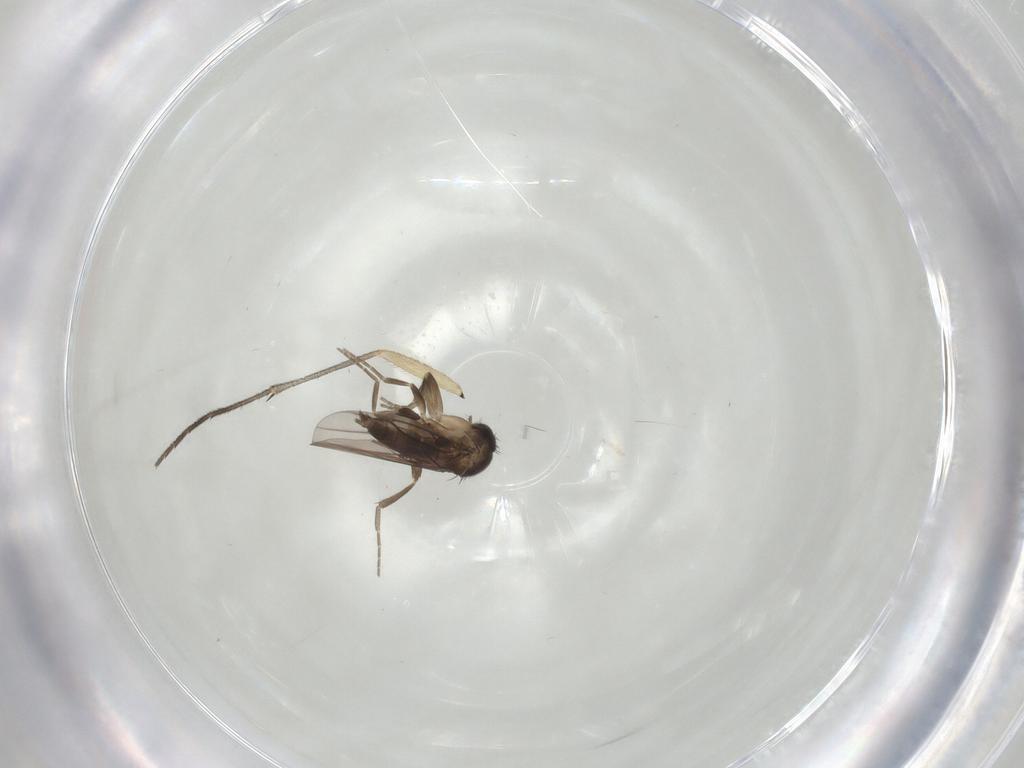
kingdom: Animalia
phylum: Arthropoda
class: Insecta
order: Diptera
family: Sciaridae
